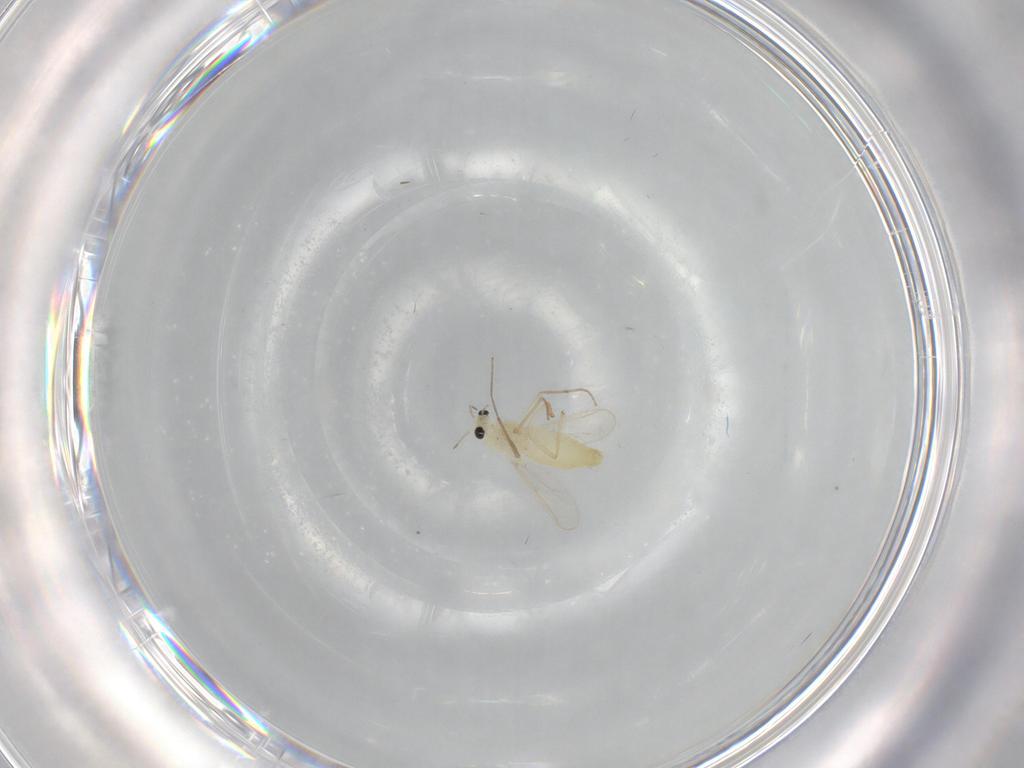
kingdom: Animalia
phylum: Arthropoda
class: Insecta
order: Diptera
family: Chironomidae
